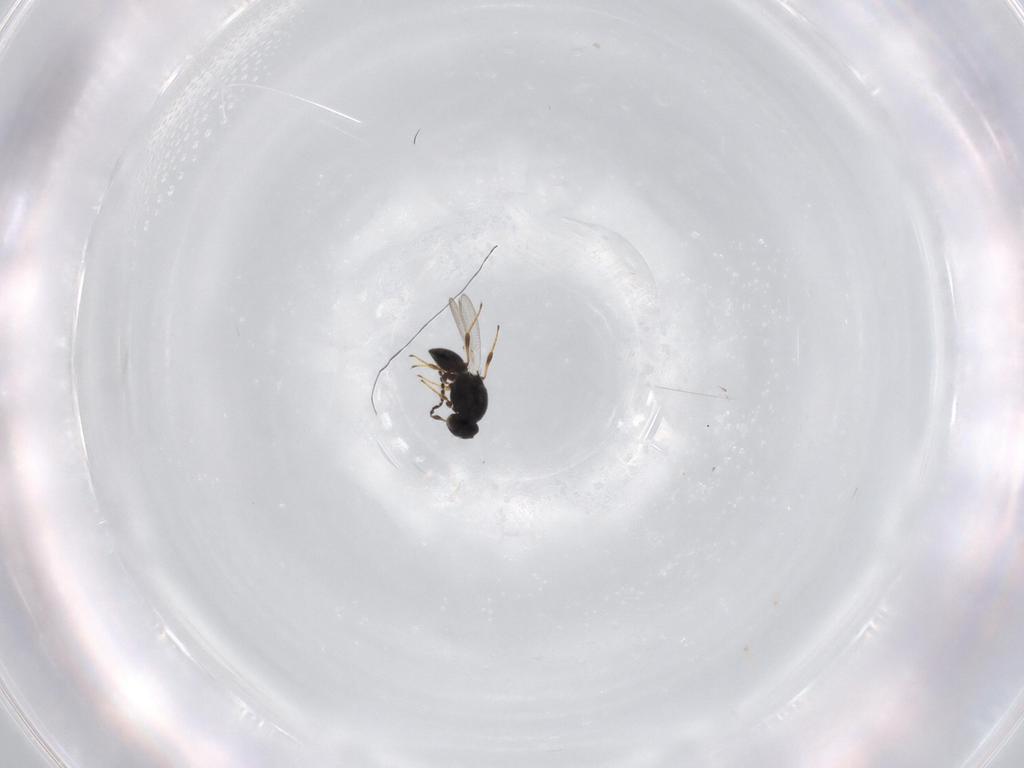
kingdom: Animalia
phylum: Arthropoda
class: Insecta
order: Hymenoptera
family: Platygastridae
